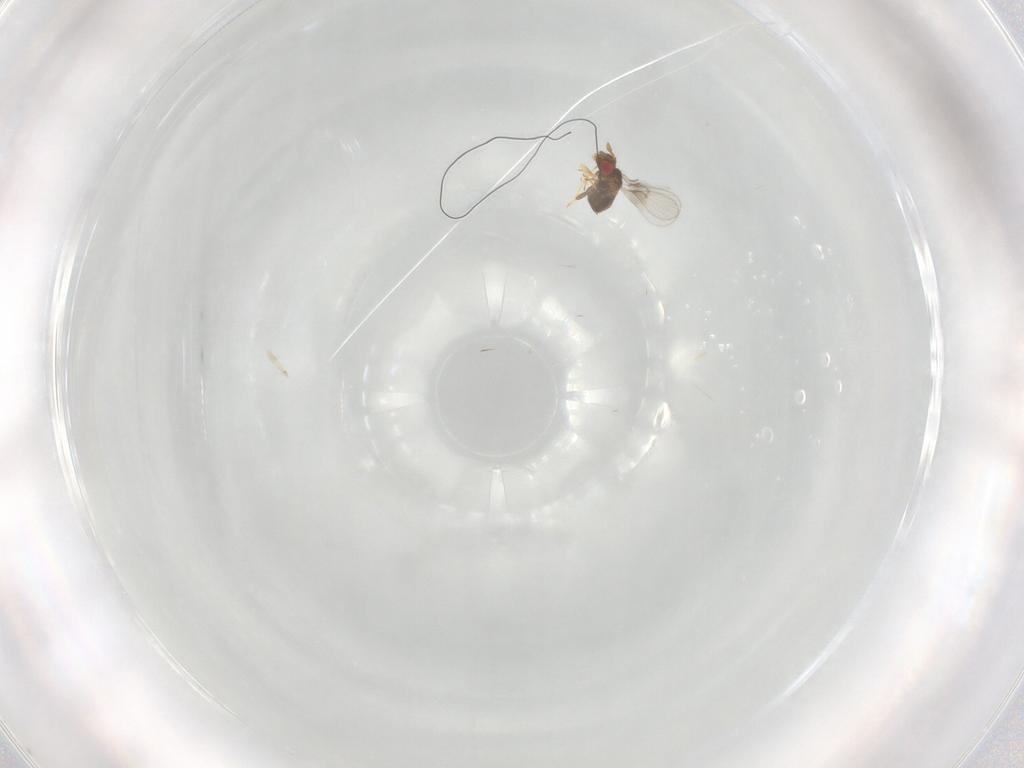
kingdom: Animalia
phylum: Arthropoda
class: Insecta
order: Hymenoptera
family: Trichogrammatidae
